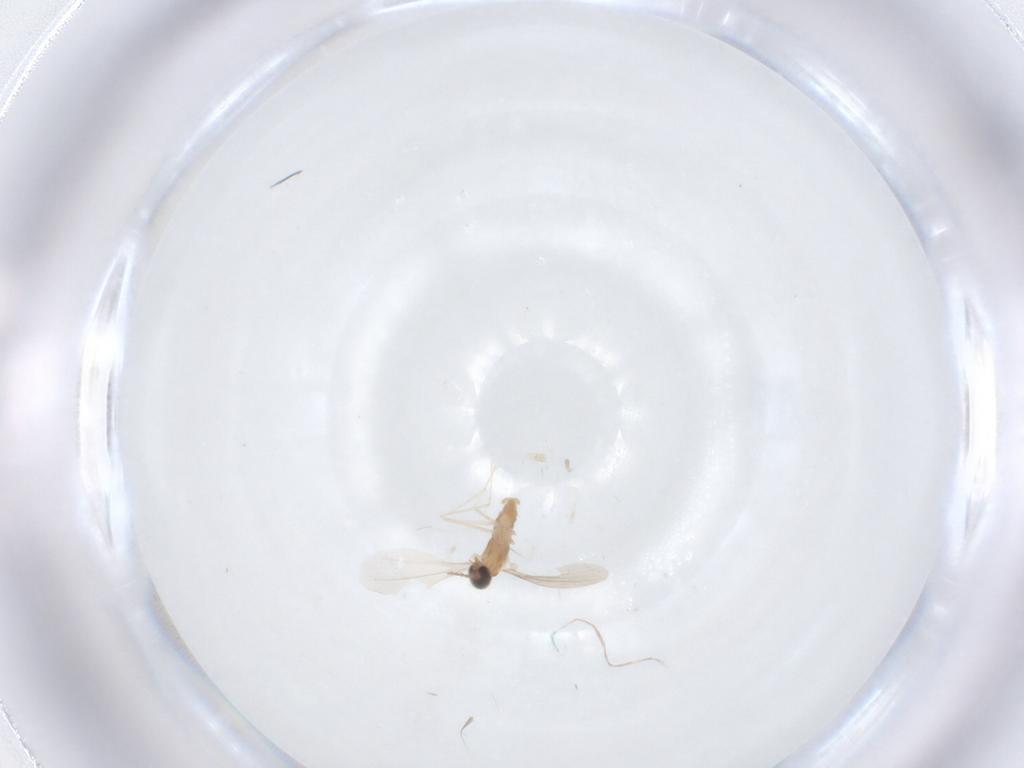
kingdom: Animalia
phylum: Arthropoda
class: Insecta
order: Diptera
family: Cecidomyiidae
